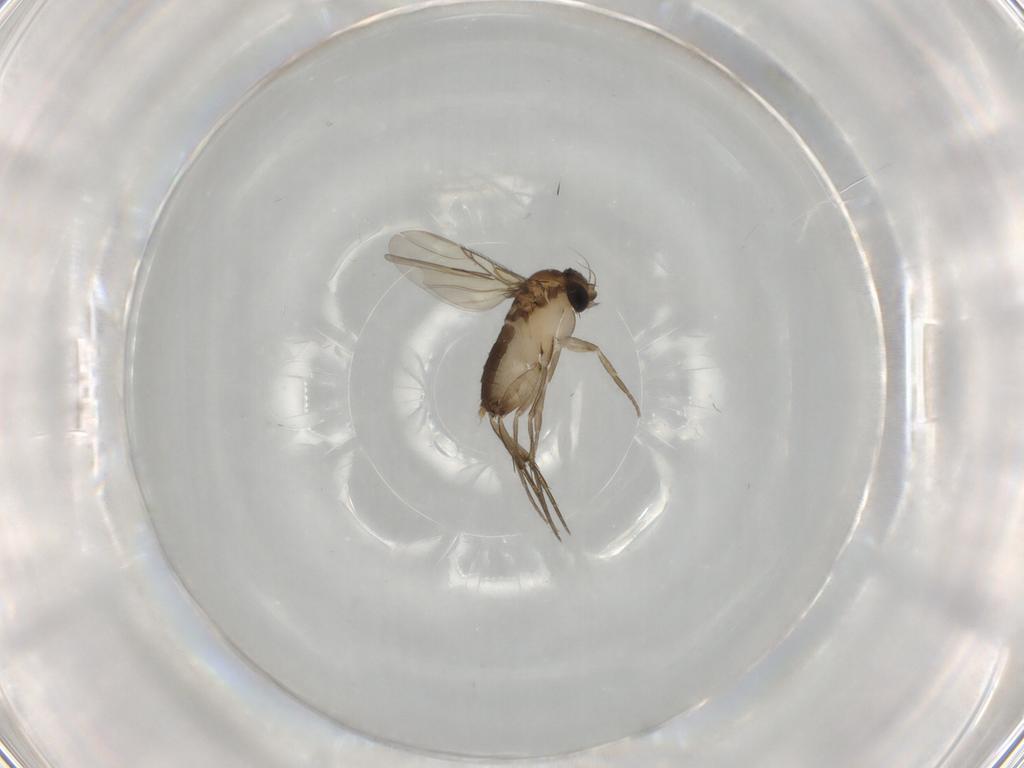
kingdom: Animalia
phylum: Arthropoda
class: Insecta
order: Diptera
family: Phoridae
